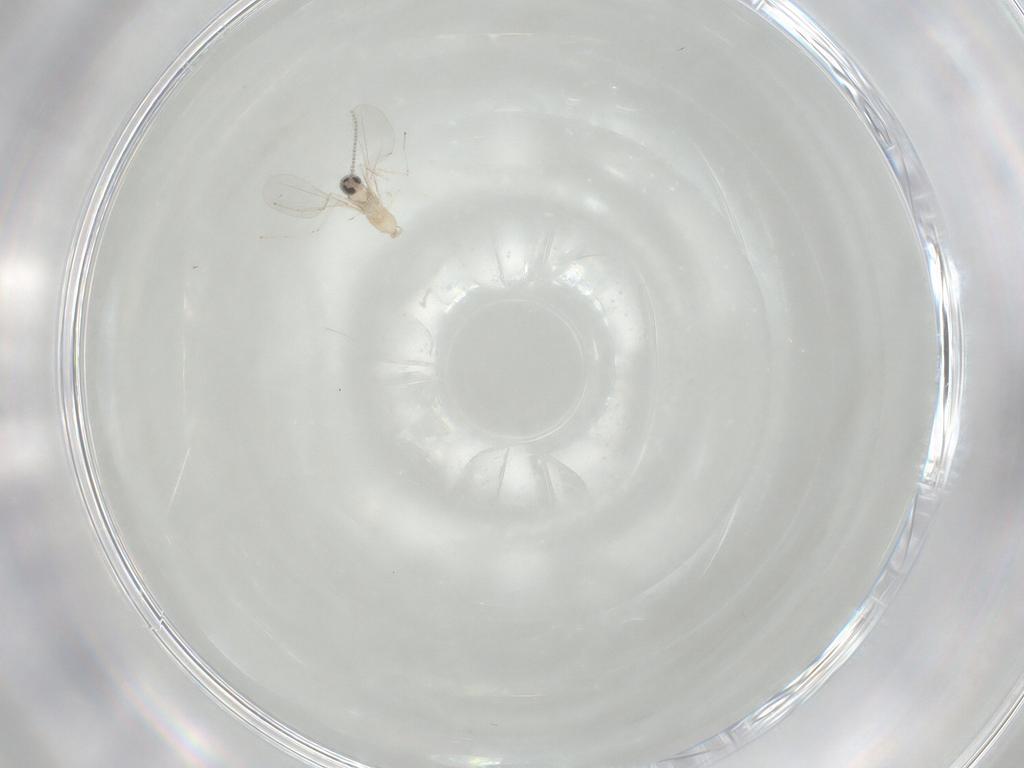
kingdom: Animalia
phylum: Arthropoda
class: Insecta
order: Diptera
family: Cecidomyiidae
